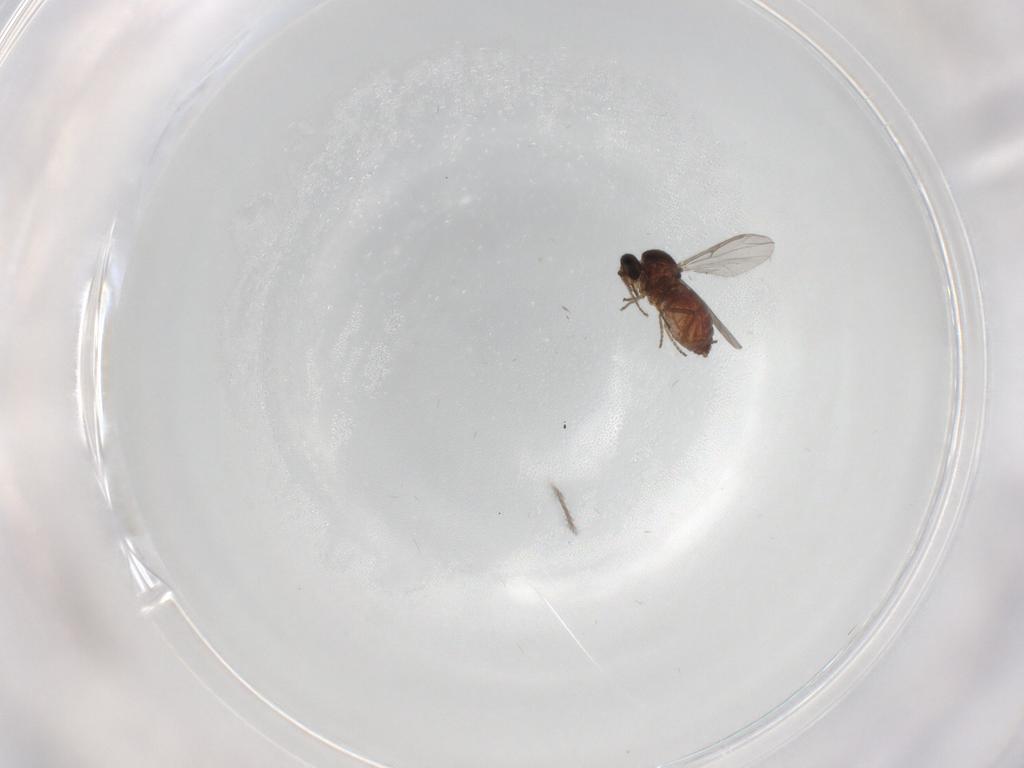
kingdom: Animalia
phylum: Arthropoda
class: Insecta
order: Diptera
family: Ceratopogonidae
